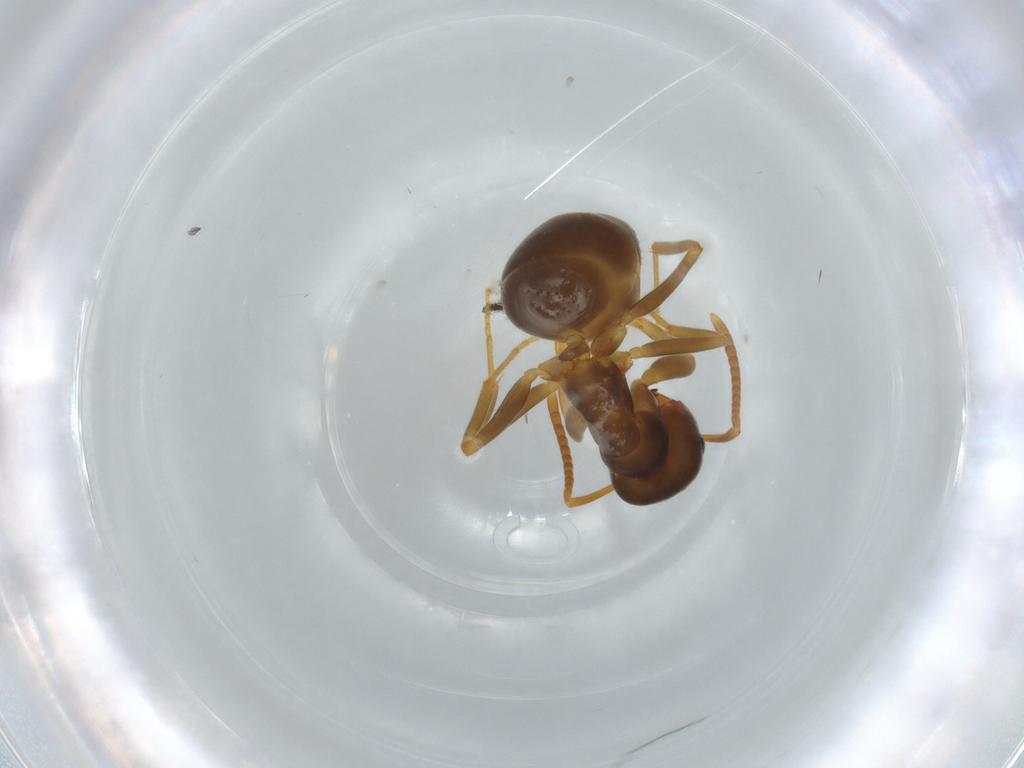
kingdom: Animalia
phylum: Arthropoda
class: Insecta
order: Hymenoptera
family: Formicidae
